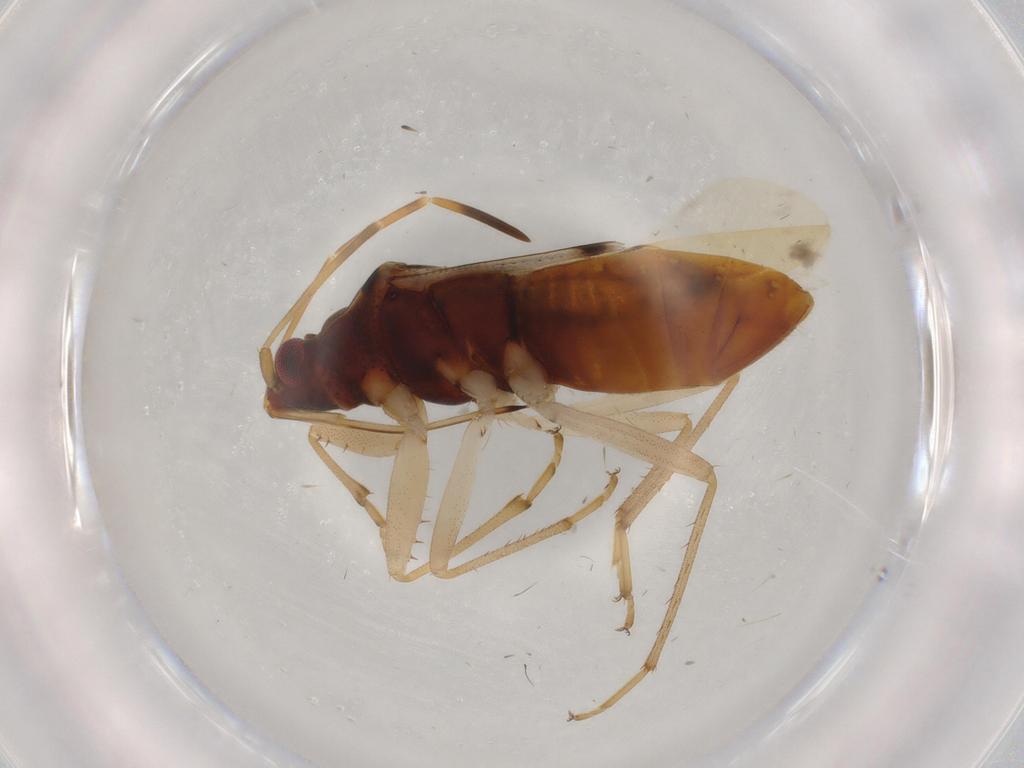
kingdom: Animalia
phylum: Arthropoda
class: Insecta
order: Hemiptera
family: Rhyparochromidae
